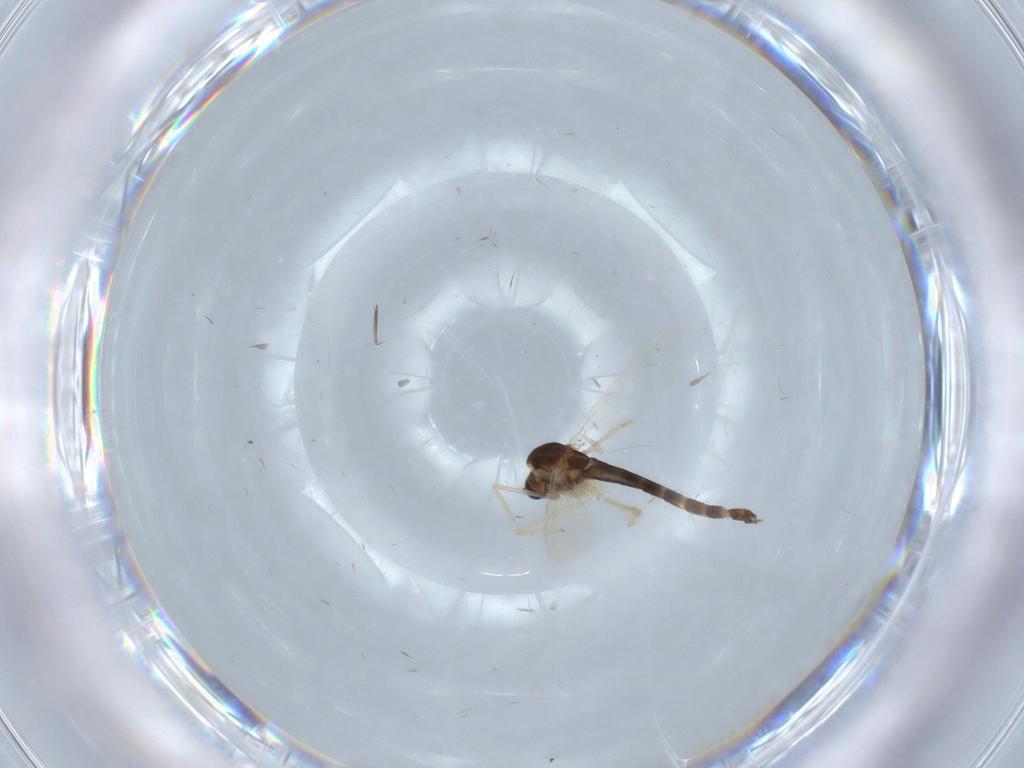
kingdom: Animalia
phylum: Arthropoda
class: Insecta
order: Diptera
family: Chironomidae
